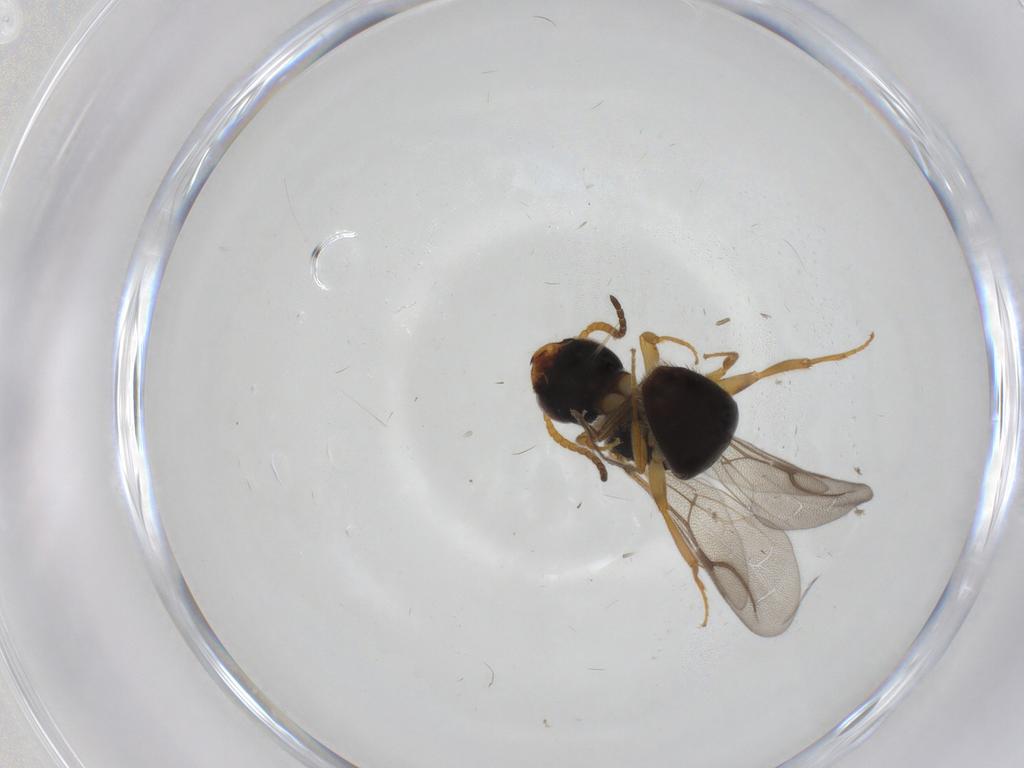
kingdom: Animalia
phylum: Arthropoda
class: Insecta
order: Hymenoptera
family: Bethylidae
